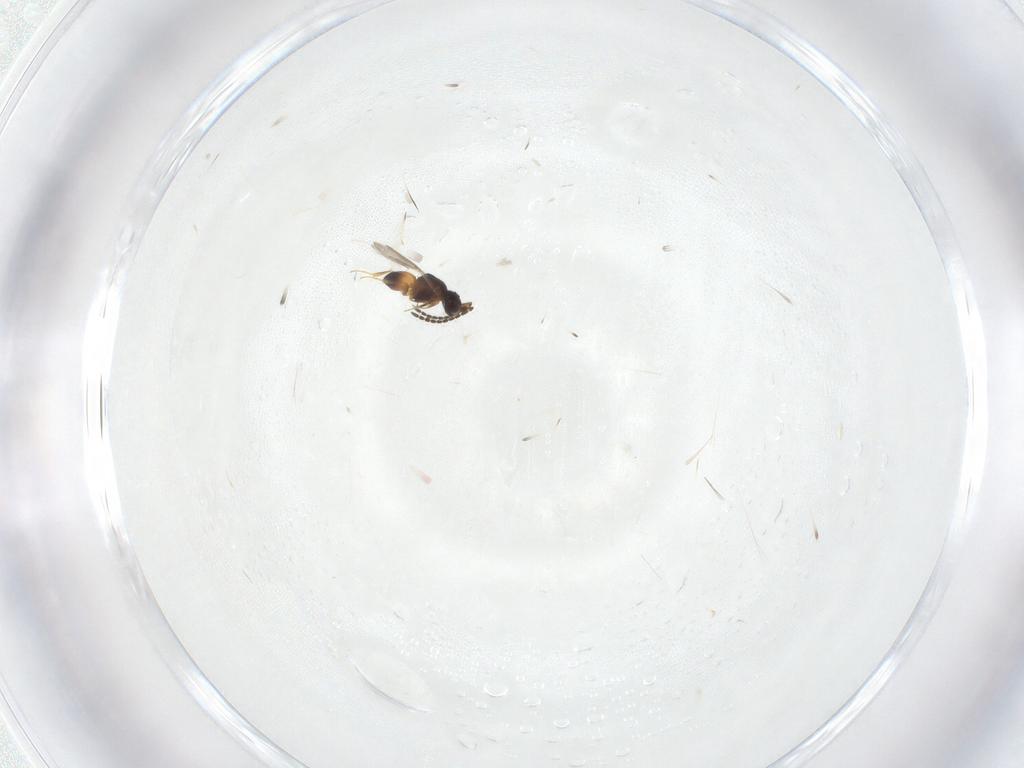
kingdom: Animalia
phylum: Arthropoda
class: Insecta
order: Hymenoptera
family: Ceraphronidae
